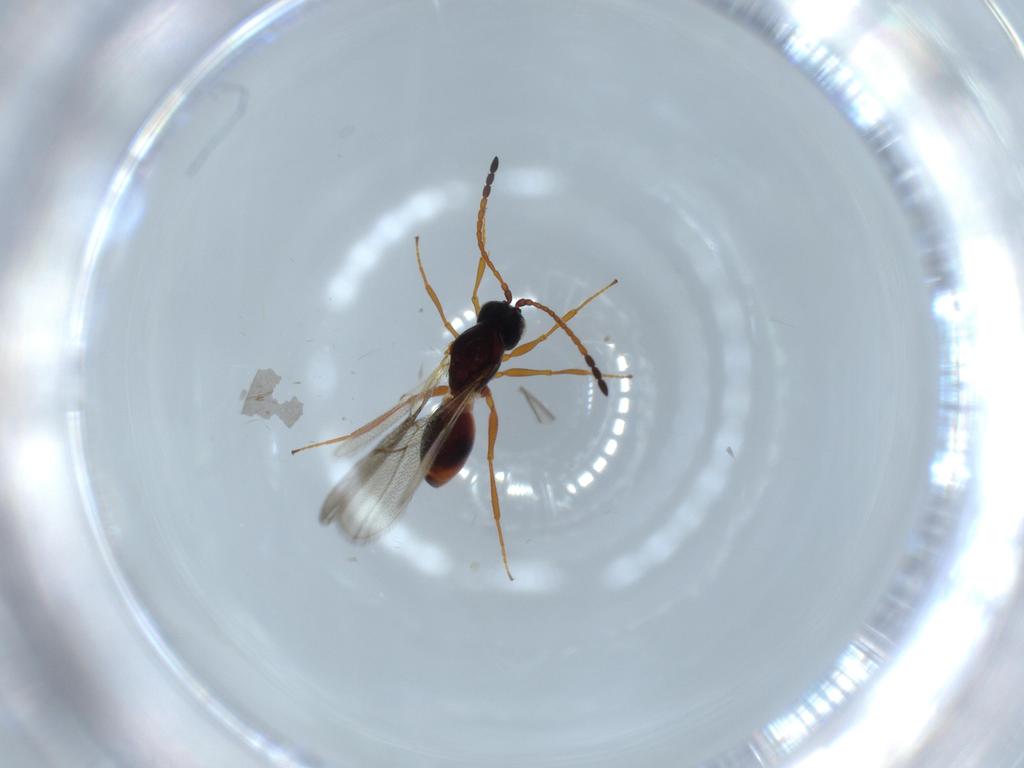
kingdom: Animalia
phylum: Arthropoda
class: Insecta
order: Hymenoptera
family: Figitidae
